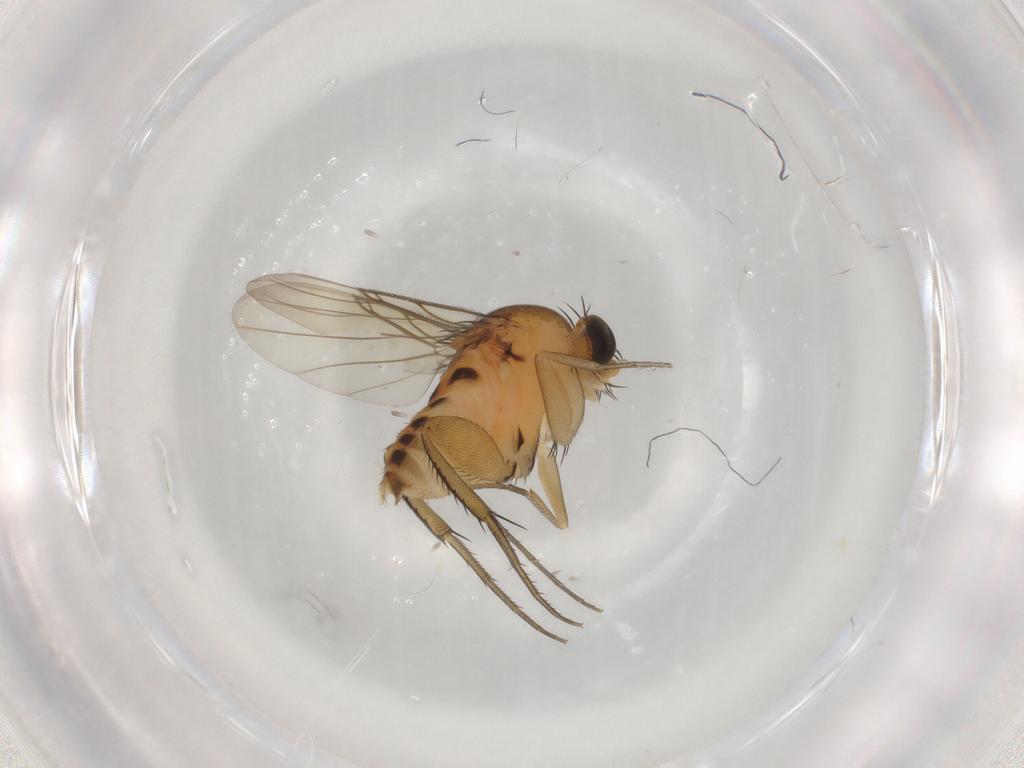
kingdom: Animalia
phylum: Arthropoda
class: Insecta
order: Diptera
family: Phoridae
